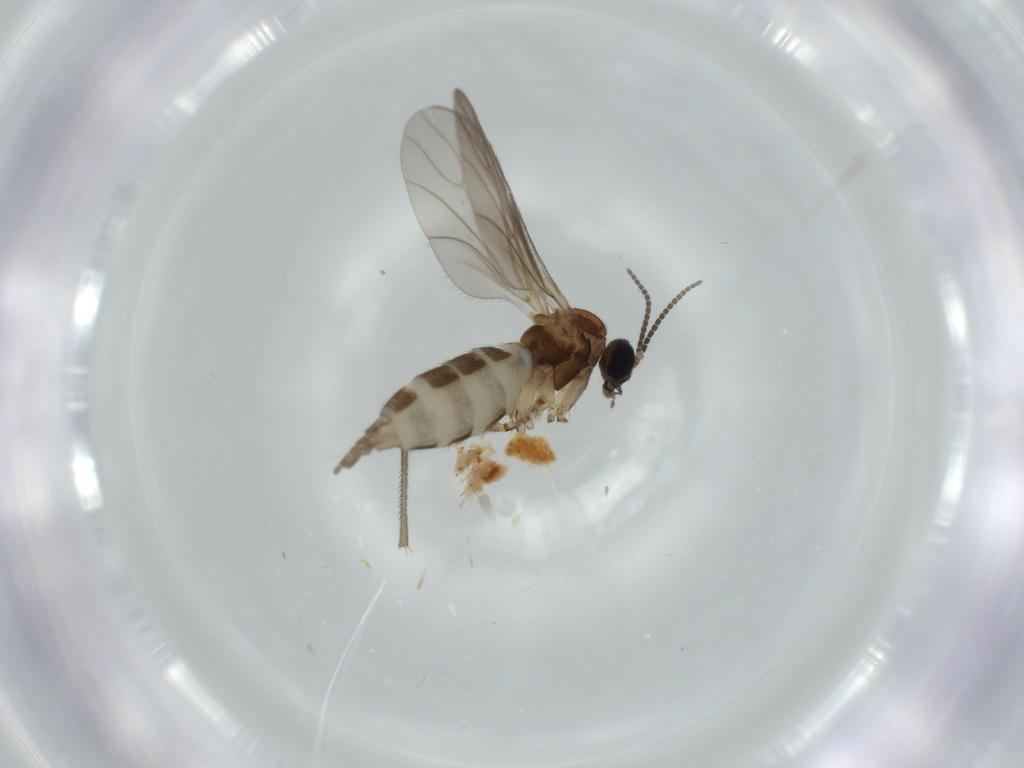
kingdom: Animalia
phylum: Arthropoda
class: Insecta
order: Diptera
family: Sciaridae
